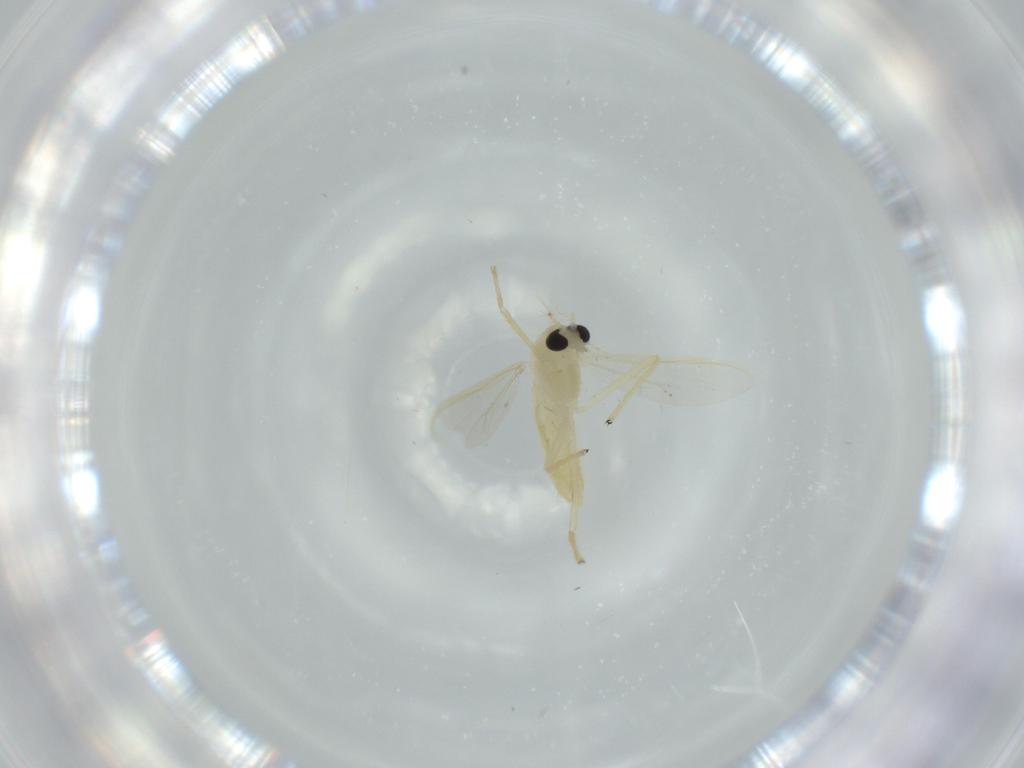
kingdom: Animalia
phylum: Arthropoda
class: Insecta
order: Diptera
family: Chironomidae
